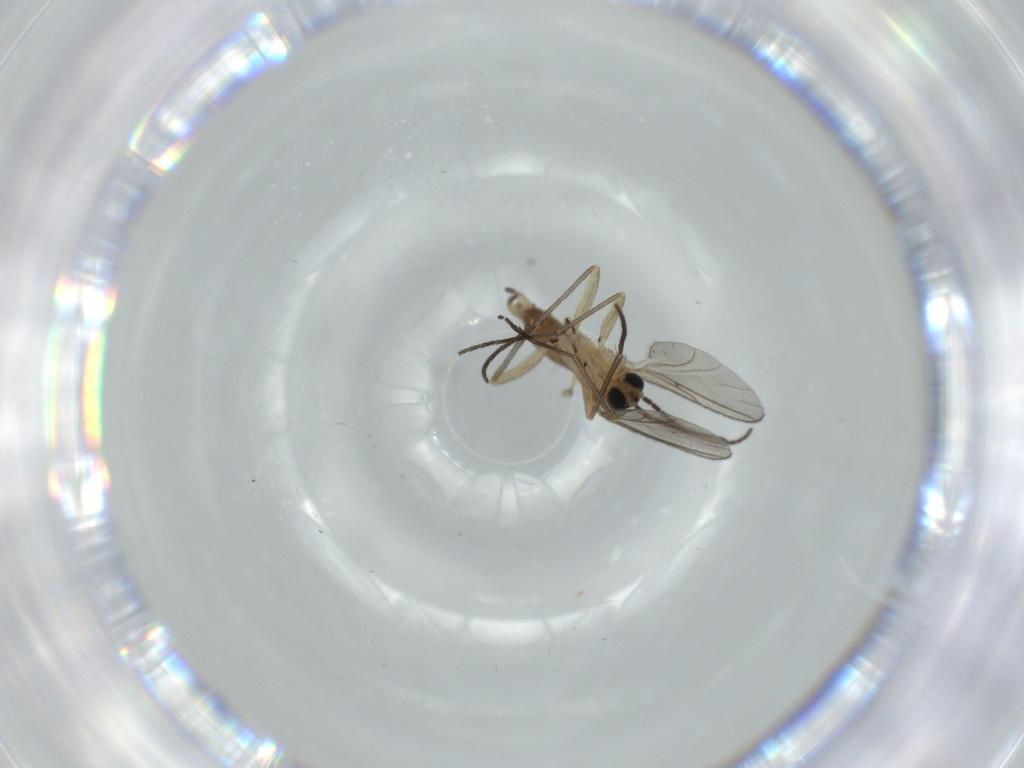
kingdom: Animalia
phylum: Arthropoda
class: Insecta
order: Diptera
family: Sciaridae
